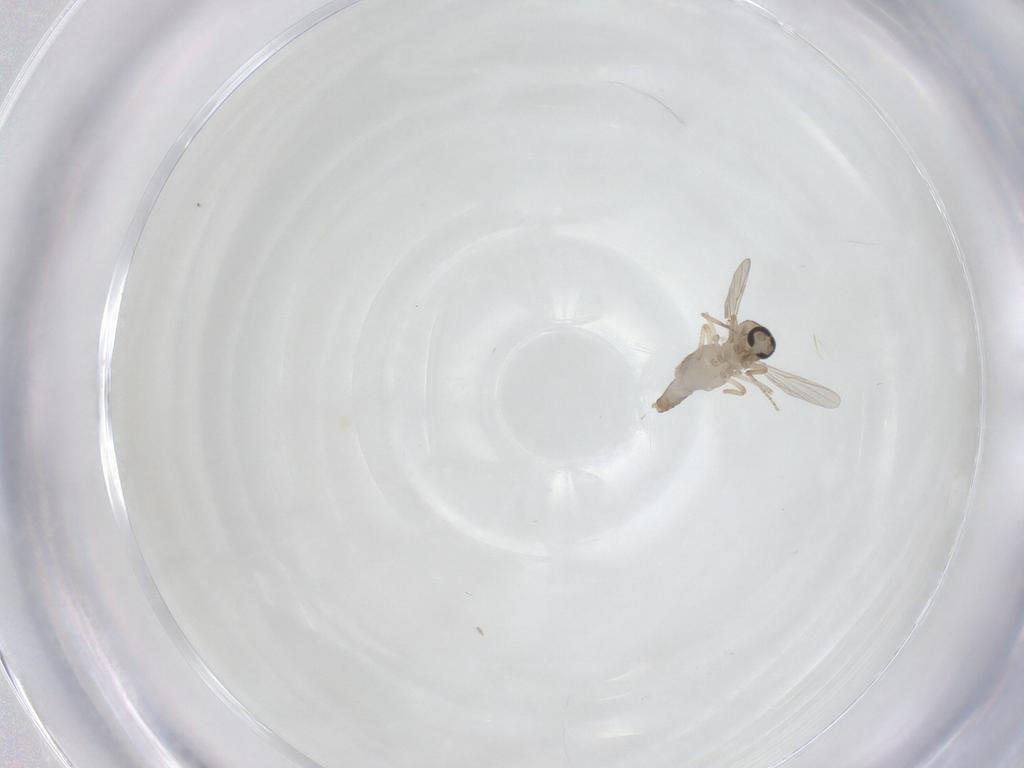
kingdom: Animalia
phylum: Arthropoda
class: Insecta
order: Diptera
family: Ceratopogonidae
